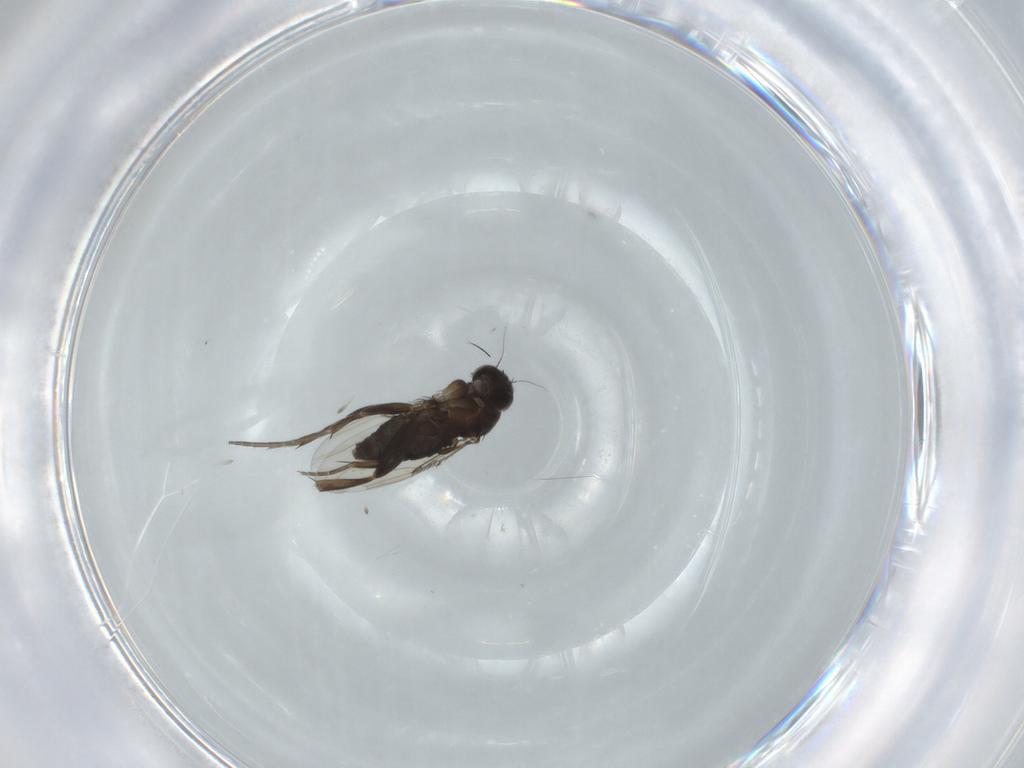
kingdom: Animalia
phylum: Arthropoda
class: Insecta
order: Diptera
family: Phoridae
